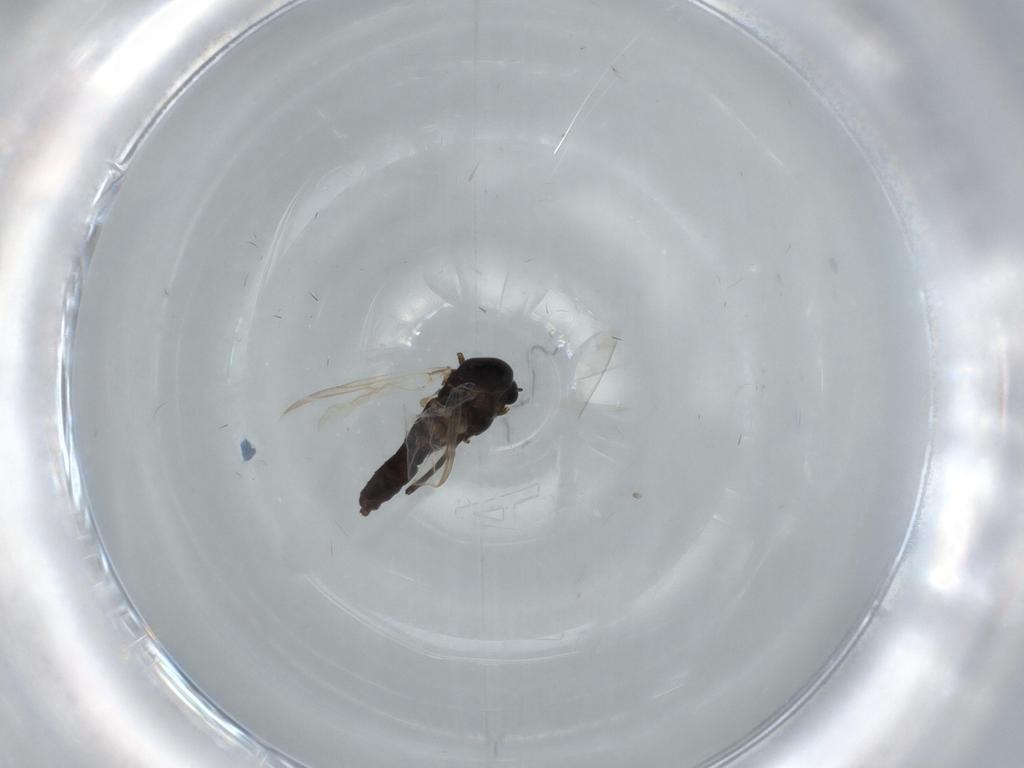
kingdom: Animalia
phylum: Arthropoda
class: Insecta
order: Diptera
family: Chironomidae
